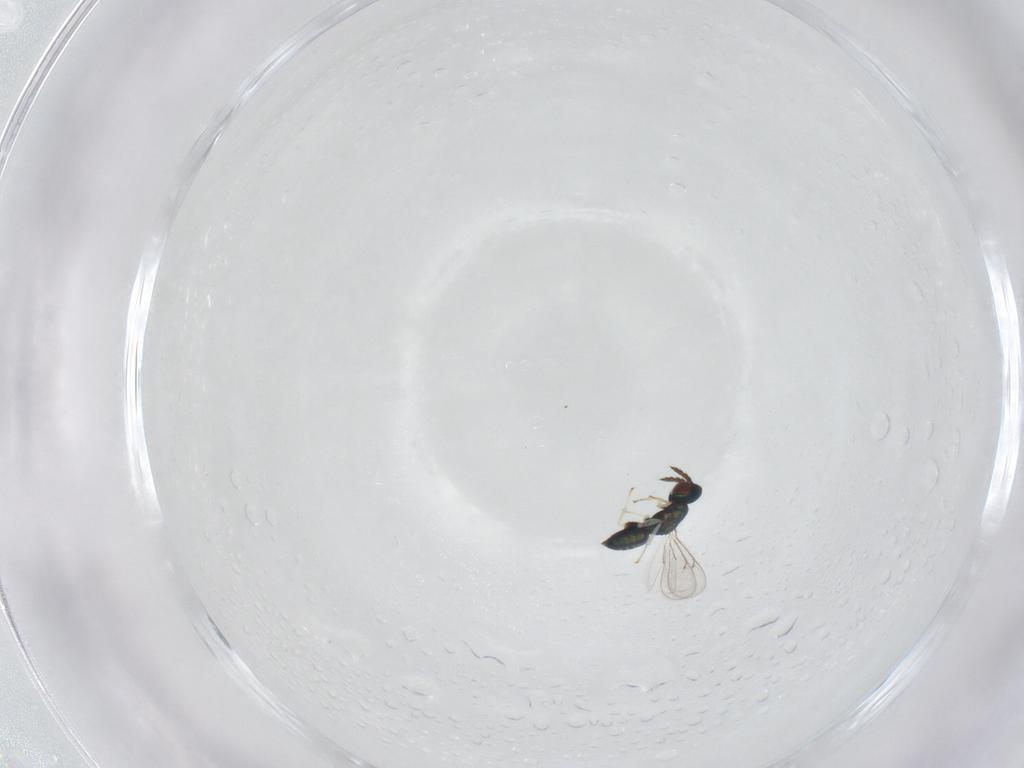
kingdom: Animalia
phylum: Arthropoda
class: Insecta
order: Hymenoptera
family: Eulophidae
